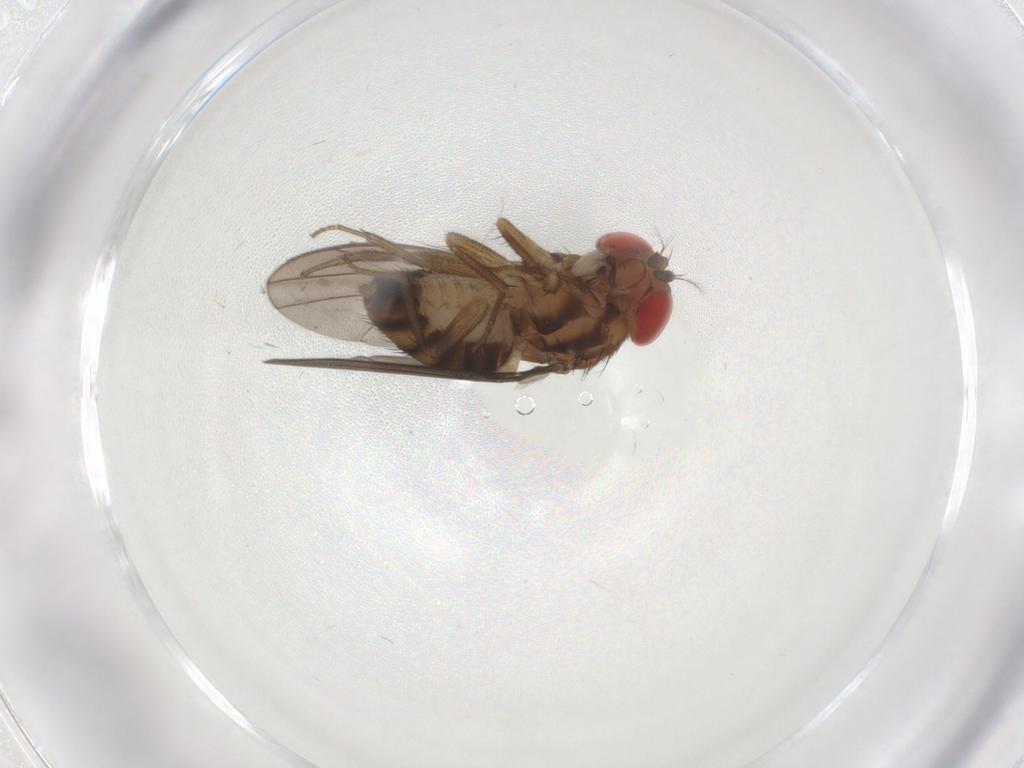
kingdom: Animalia
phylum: Arthropoda
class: Insecta
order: Diptera
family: Drosophilidae
